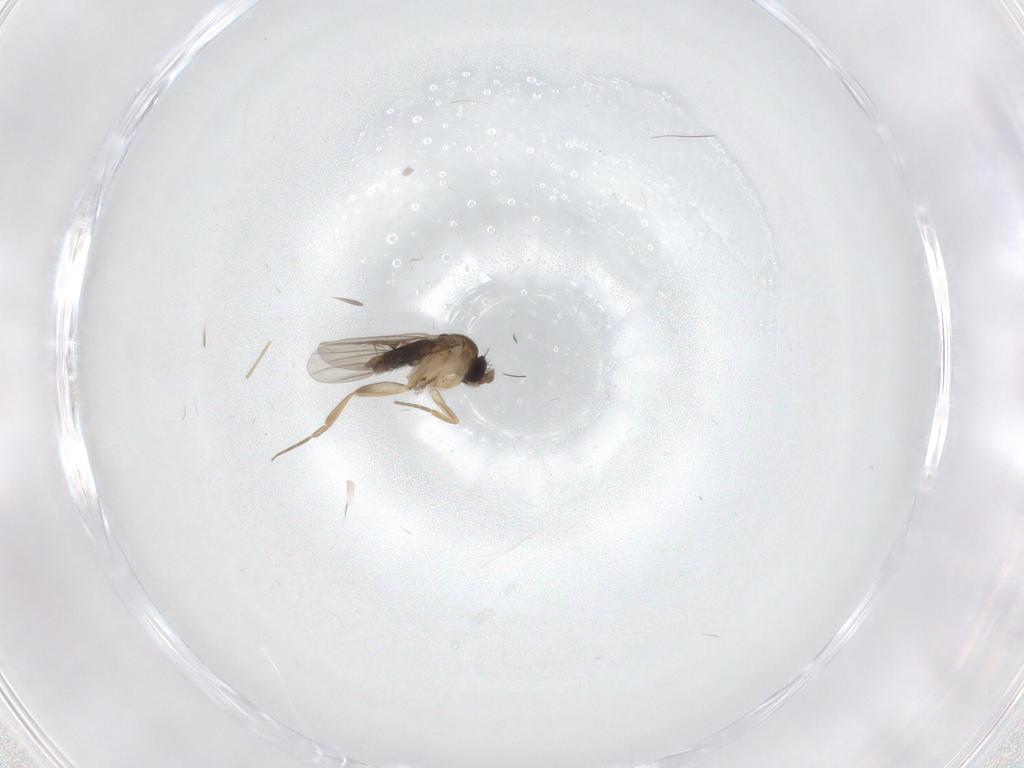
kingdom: Animalia
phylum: Arthropoda
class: Insecta
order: Diptera
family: Phoridae
